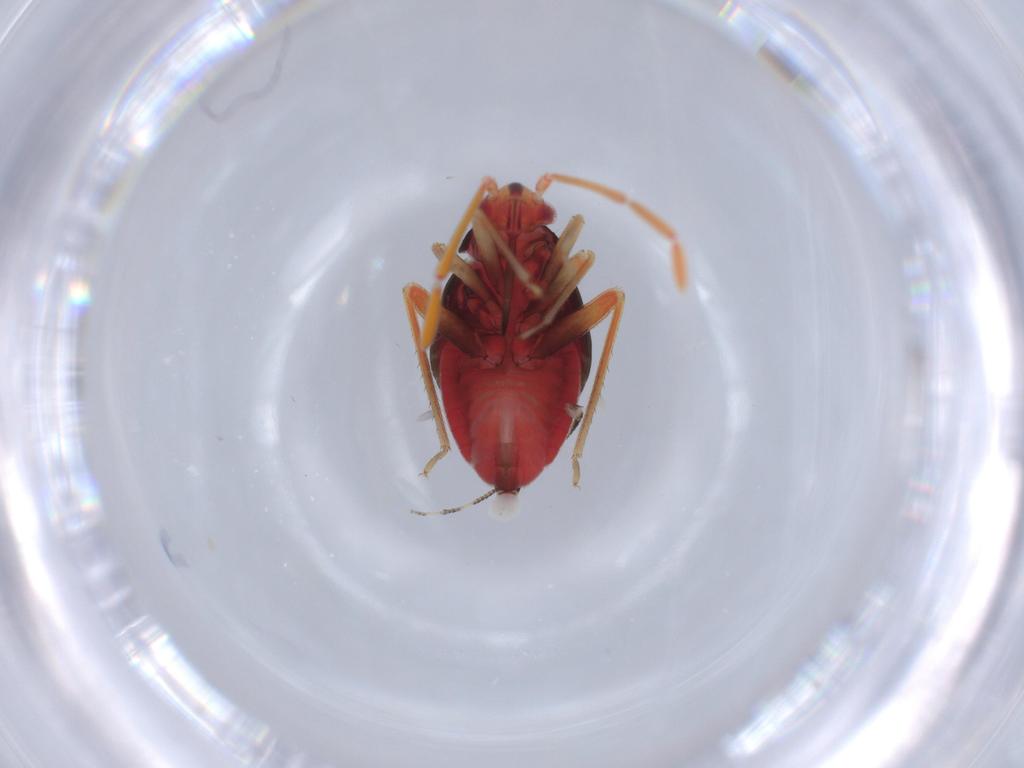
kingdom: Animalia
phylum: Arthropoda
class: Insecta
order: Hemiptera
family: Miridae
